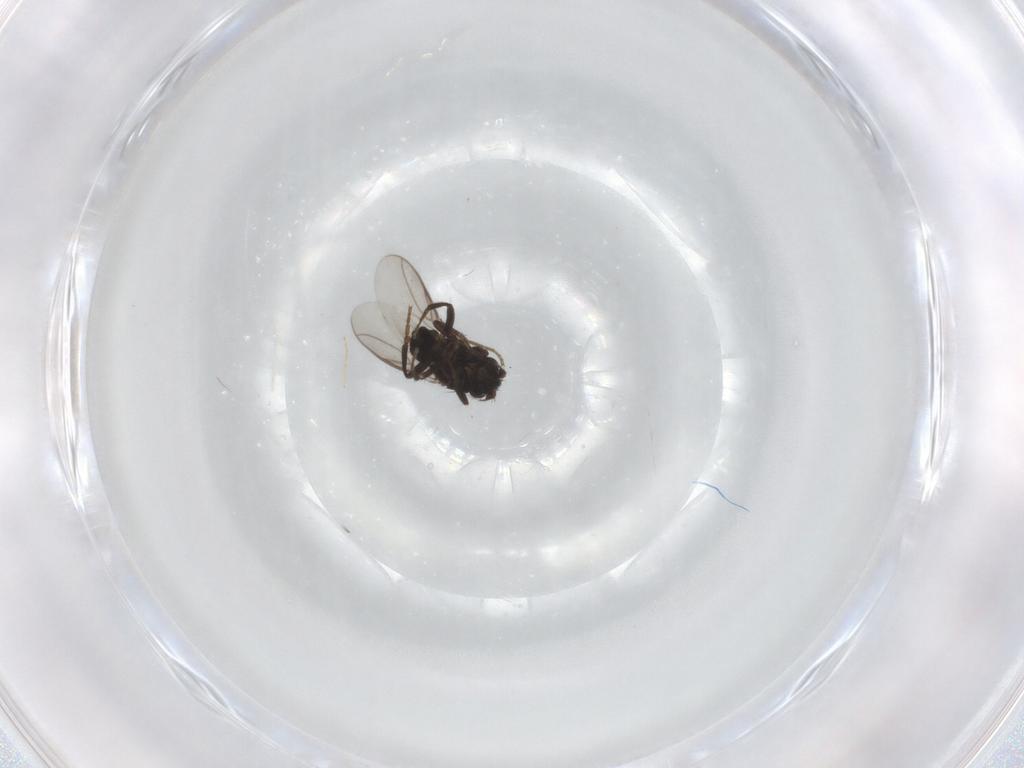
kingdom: Animalia
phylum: Arthropoda
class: Insecta
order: Diptera
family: Sphaeroceridae
